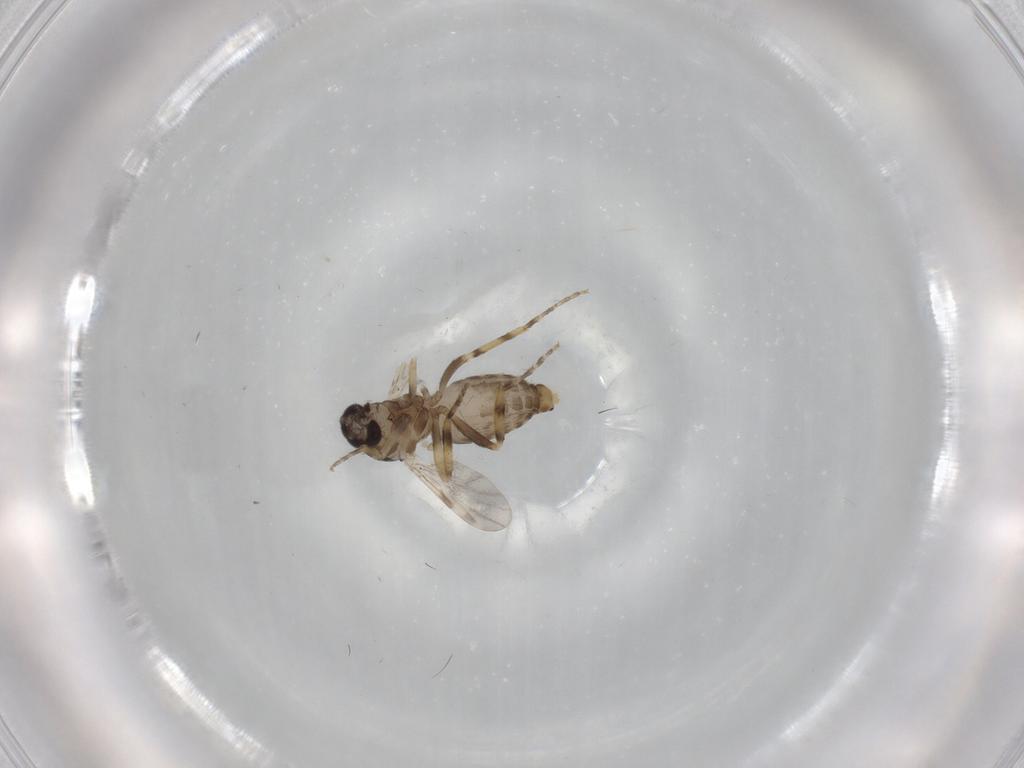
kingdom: Animalia
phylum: Arthropoda
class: Insecta
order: Diptera
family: Ceratopogonidae
